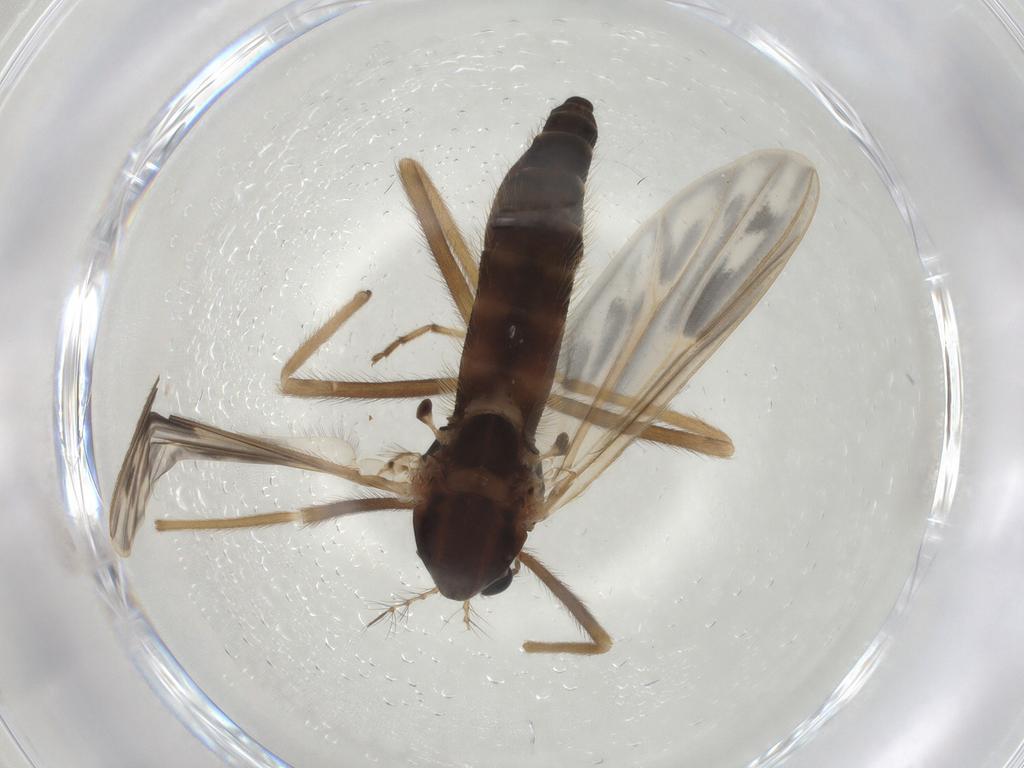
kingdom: Animalia
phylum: Arthropoda
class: Insecta
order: Diptera
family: Chironomidae
